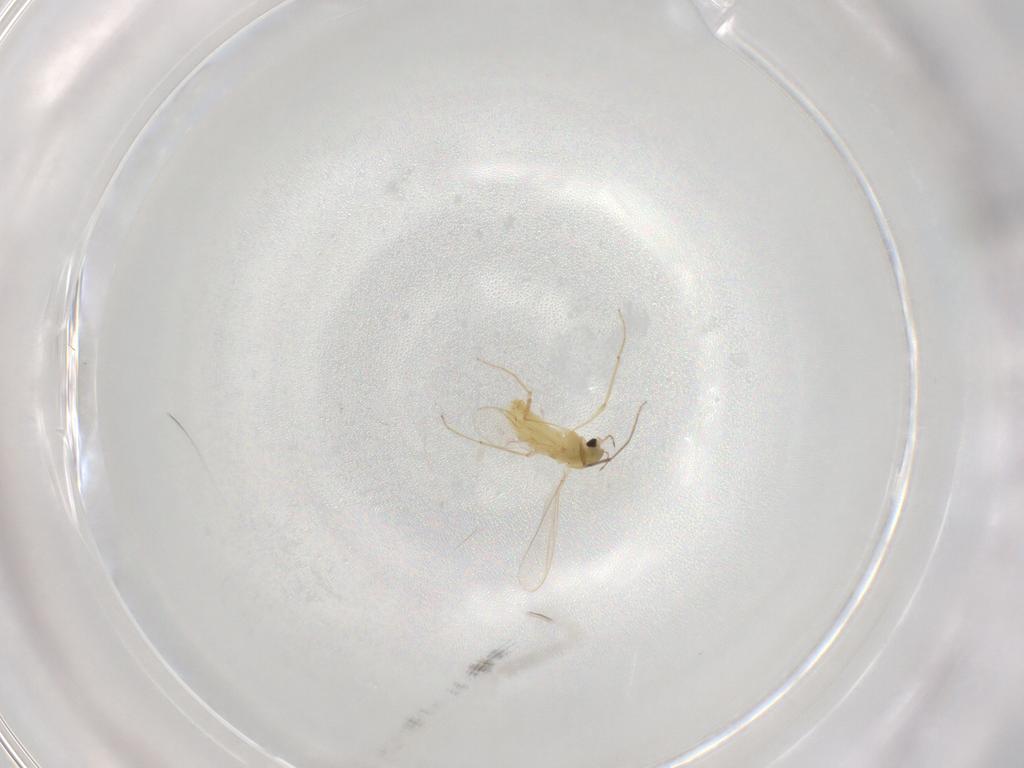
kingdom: Animalia
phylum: Arthropoda
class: Insecta
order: Diptera
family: Chironomidae
